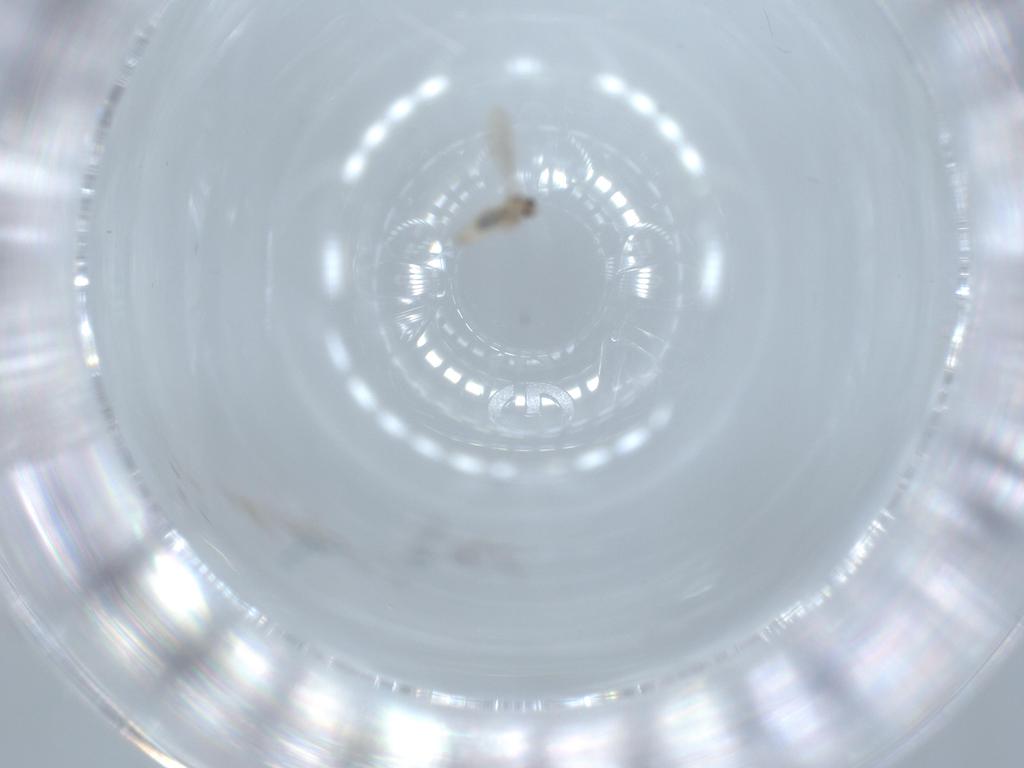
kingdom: Animalia
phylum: Arthropoda
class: Insecta
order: Diptera
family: Cecidomyiidae
